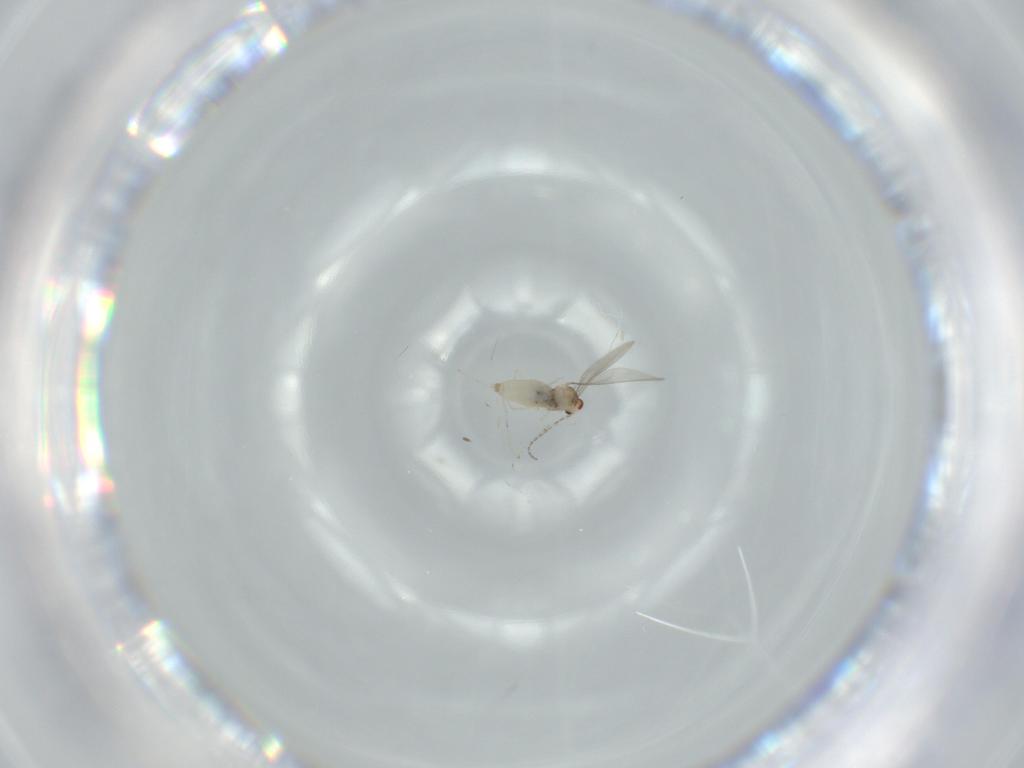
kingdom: Animalia
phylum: Arthropoda
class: Insecta
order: Diptera
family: Cecidomyiidae
